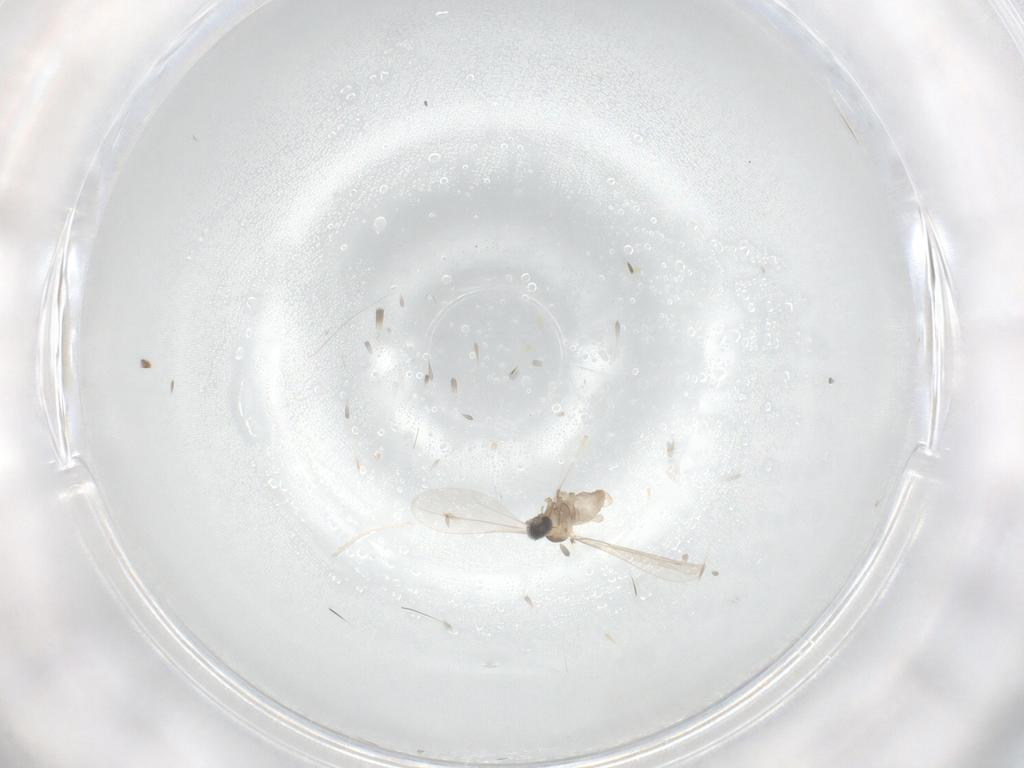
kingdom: Animalia
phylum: Arthropoda
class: Insecta
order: Diptera
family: Cecidomyiidae
